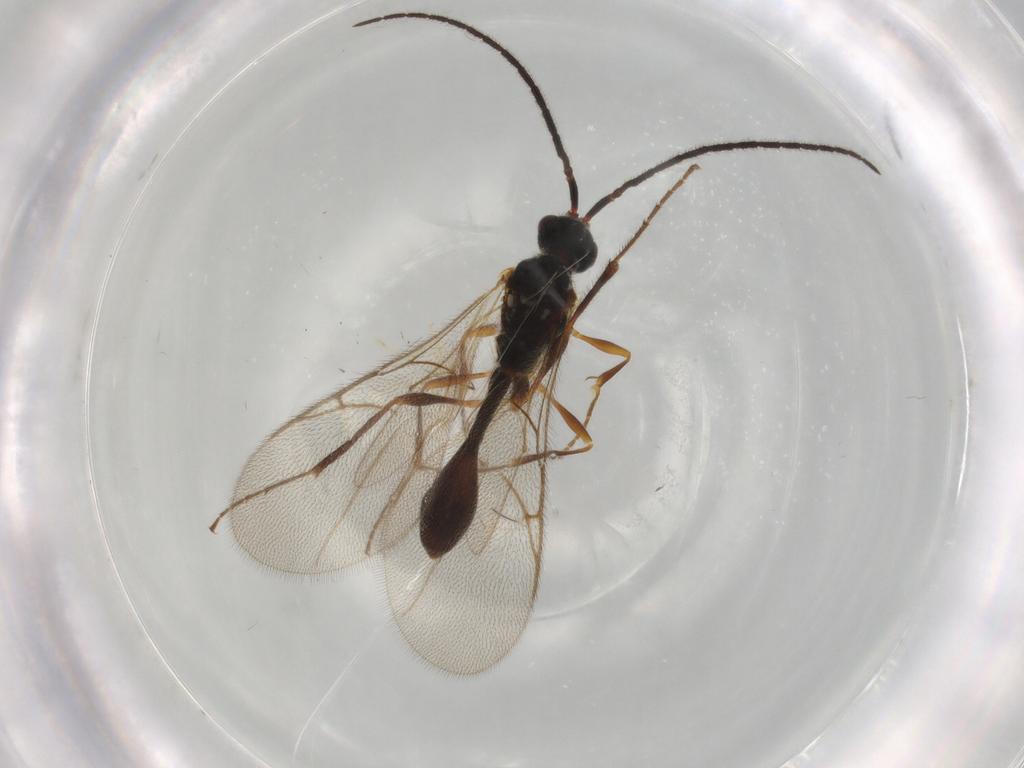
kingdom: Animalia
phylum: Arthropoda
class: Insecta
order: Hymenoptera
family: Diapriidae
